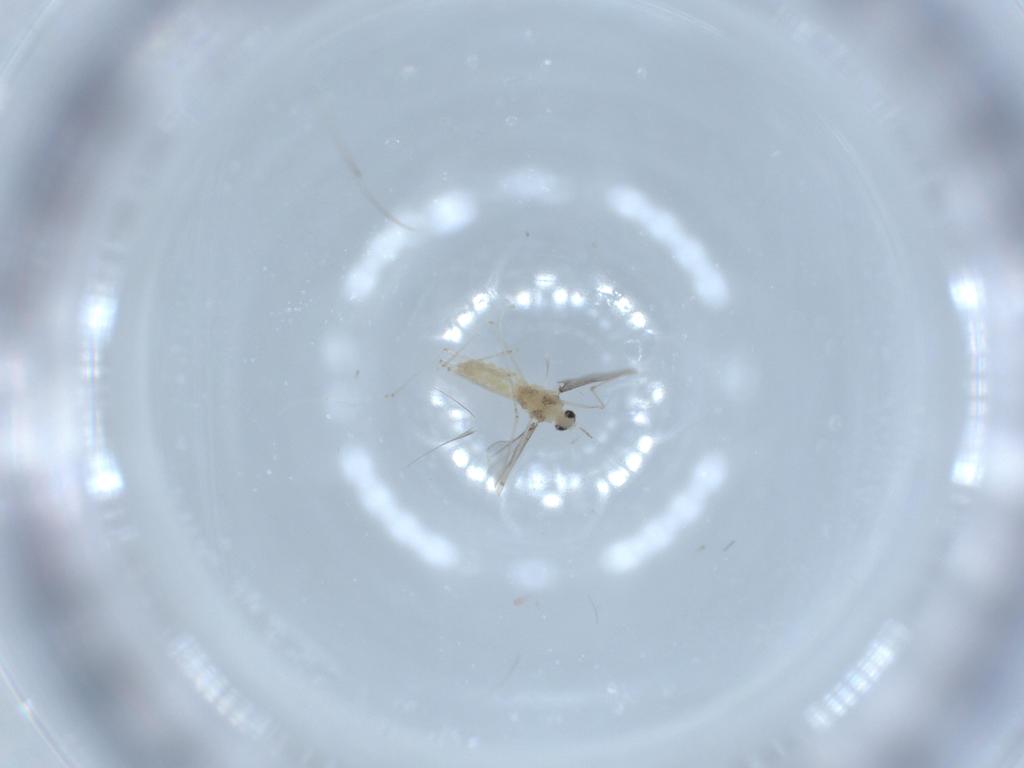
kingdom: Animalia
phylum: Arthropoda
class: Insecta
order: Diptera
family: Cecidomyiidae
